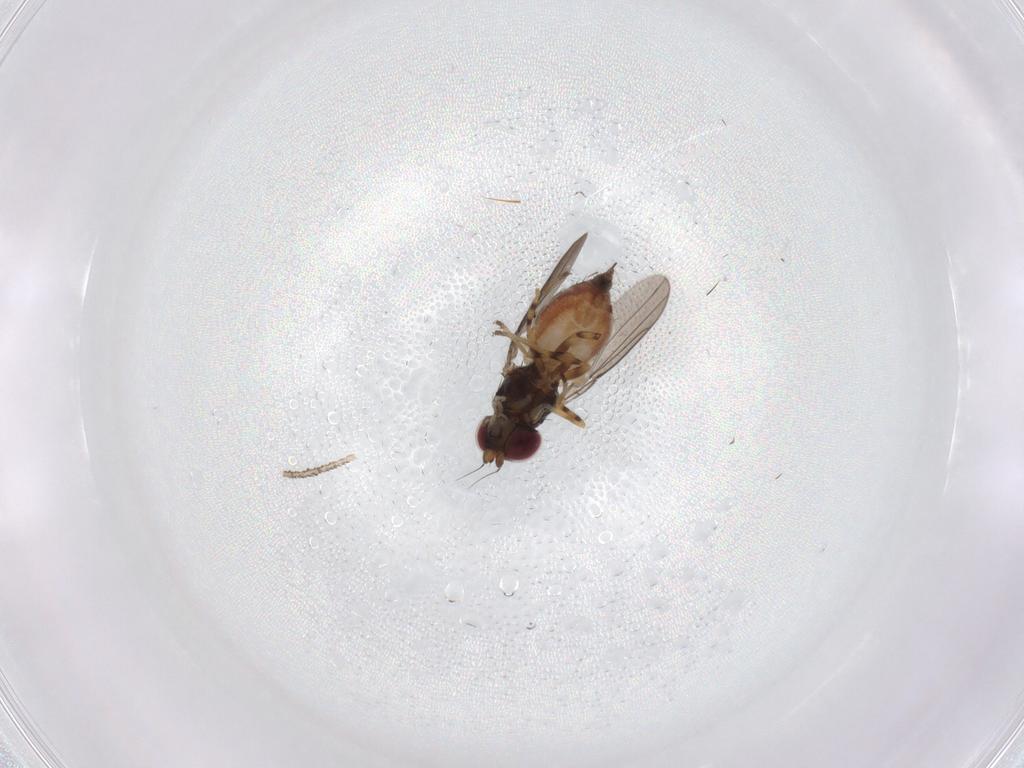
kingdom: Animalia
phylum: Arthropoda
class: Insecta
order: Diptera
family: Chloropidae
